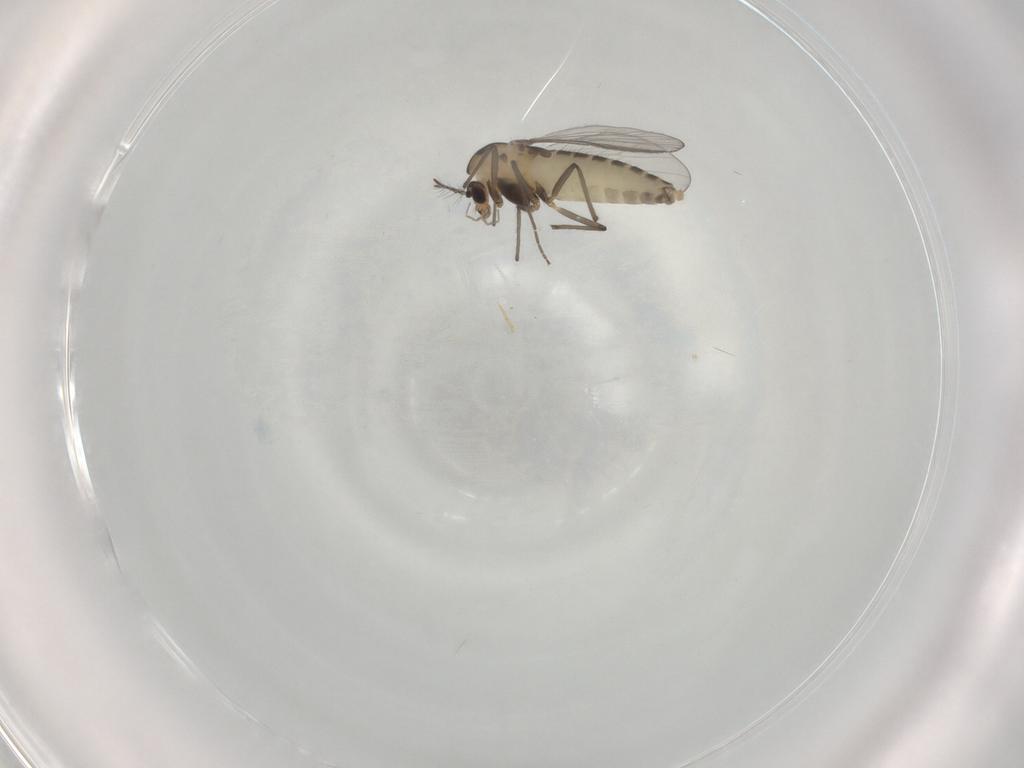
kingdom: Animalia
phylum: Arthropoda
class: Insecta
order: Diptera
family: Chironomidae
